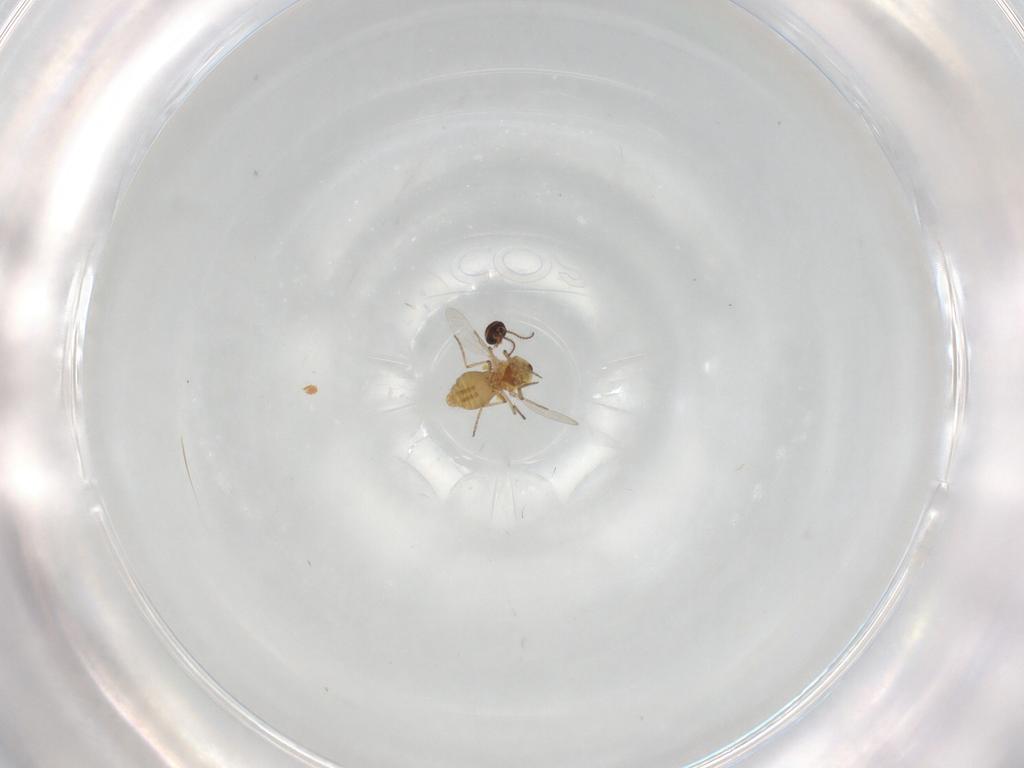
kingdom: Animalia
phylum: Arthropoda
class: Insecta
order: Diptera
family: Ceratopogonidae
